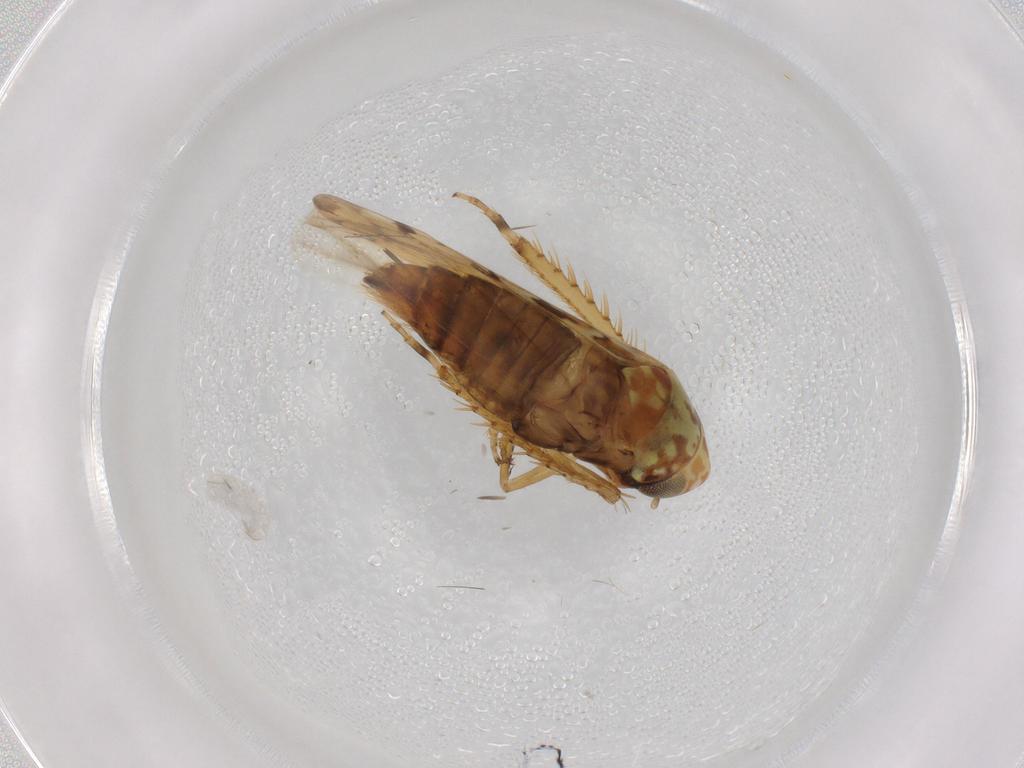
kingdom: Animalia
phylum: Arthropoda
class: Insecta
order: Hemiptera
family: Cicadellidae
